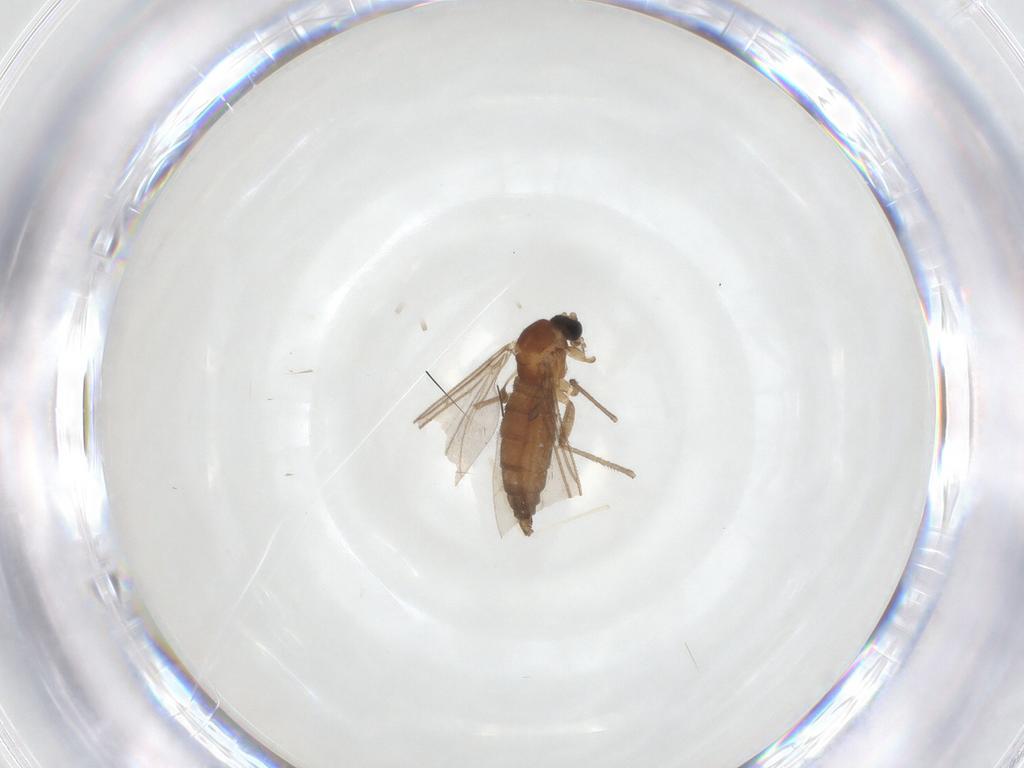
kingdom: Animalia
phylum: Arthropoda
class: Insecta
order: Diptera
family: Sciaridae
